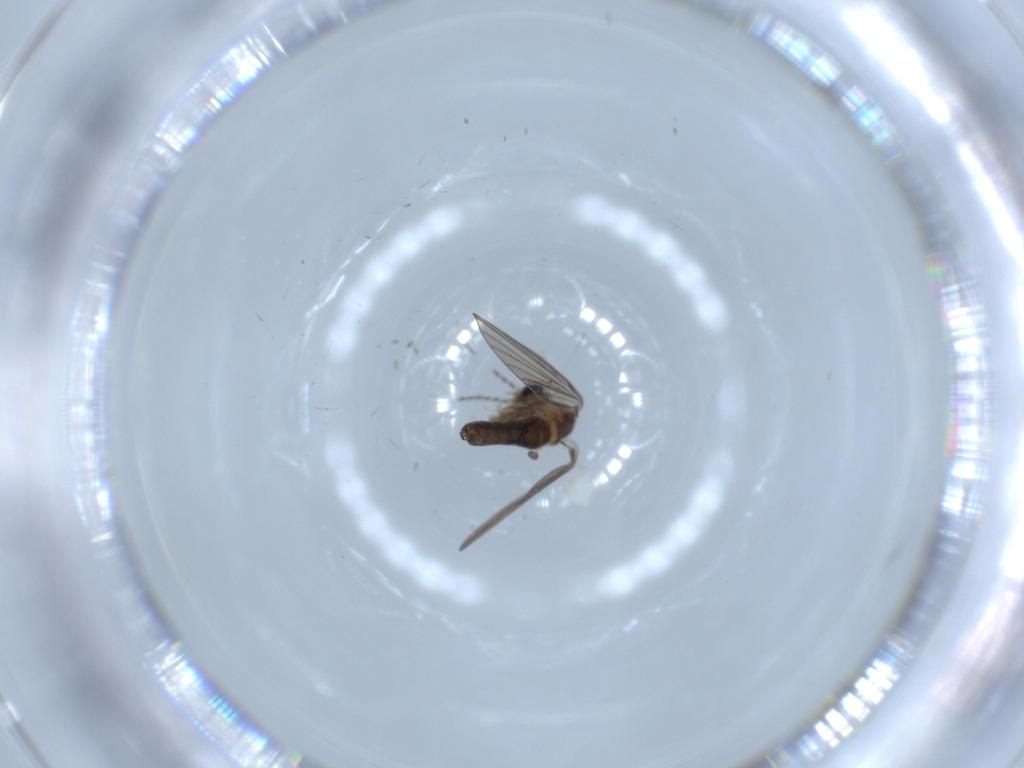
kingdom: Animalia
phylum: Arthropoda
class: Insecta
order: Diptera
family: Psychodidae
